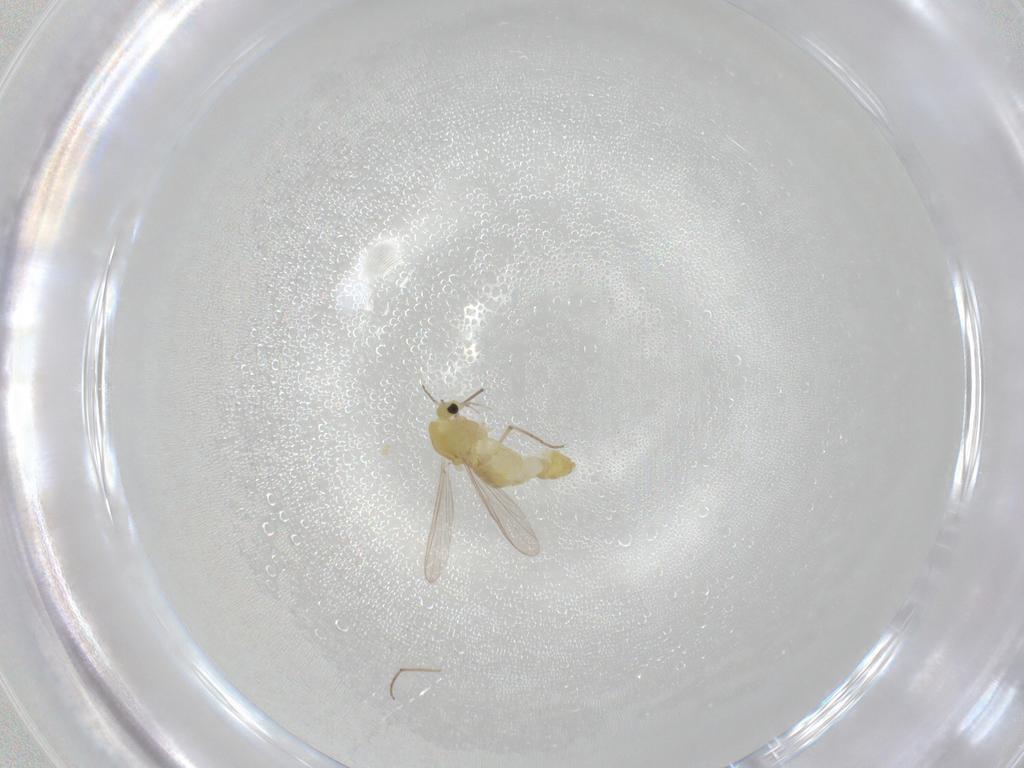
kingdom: Animalia
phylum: Arthropoda
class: Insecta
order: Diptera
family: Chironomidae
